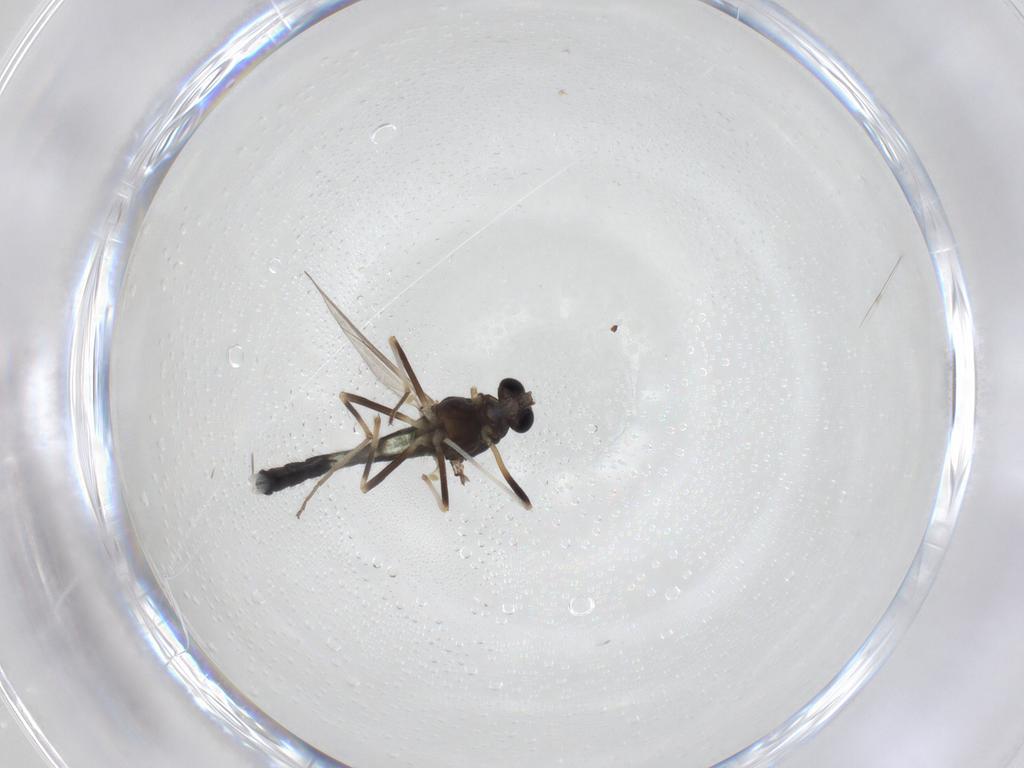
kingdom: Animalia
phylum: Arthropoda
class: Insecta
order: Diptera
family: Chironomidae
